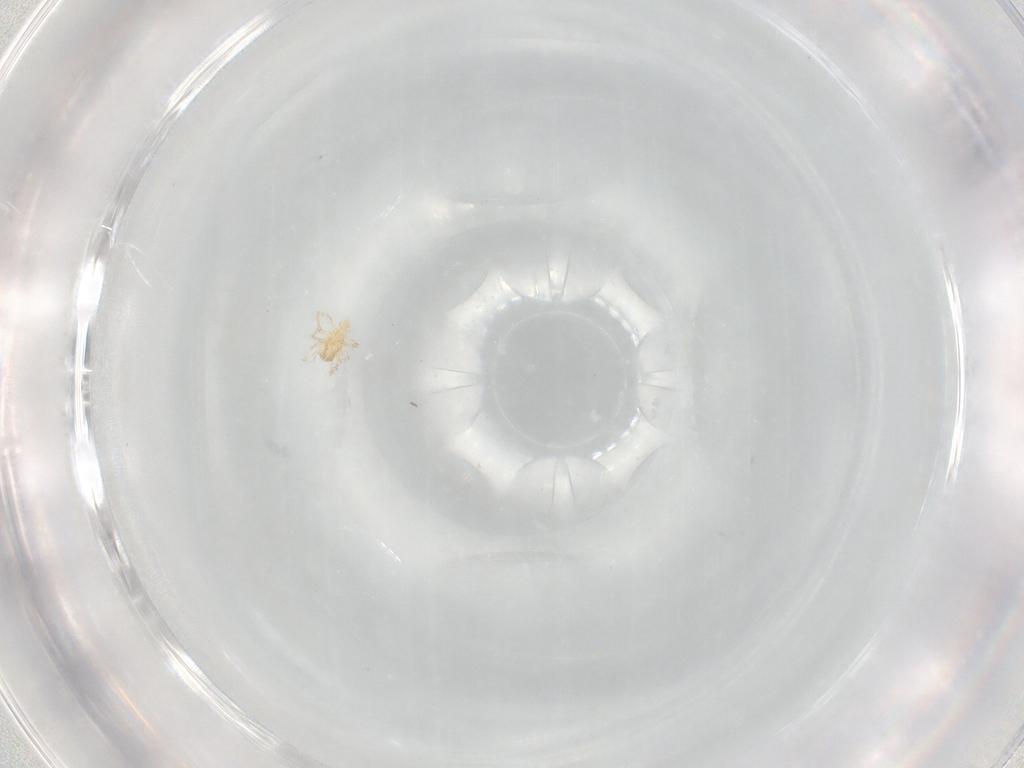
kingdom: Animalia
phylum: Arthropoda
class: Arachnida
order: Trombidiformes
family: Erythraeidae
